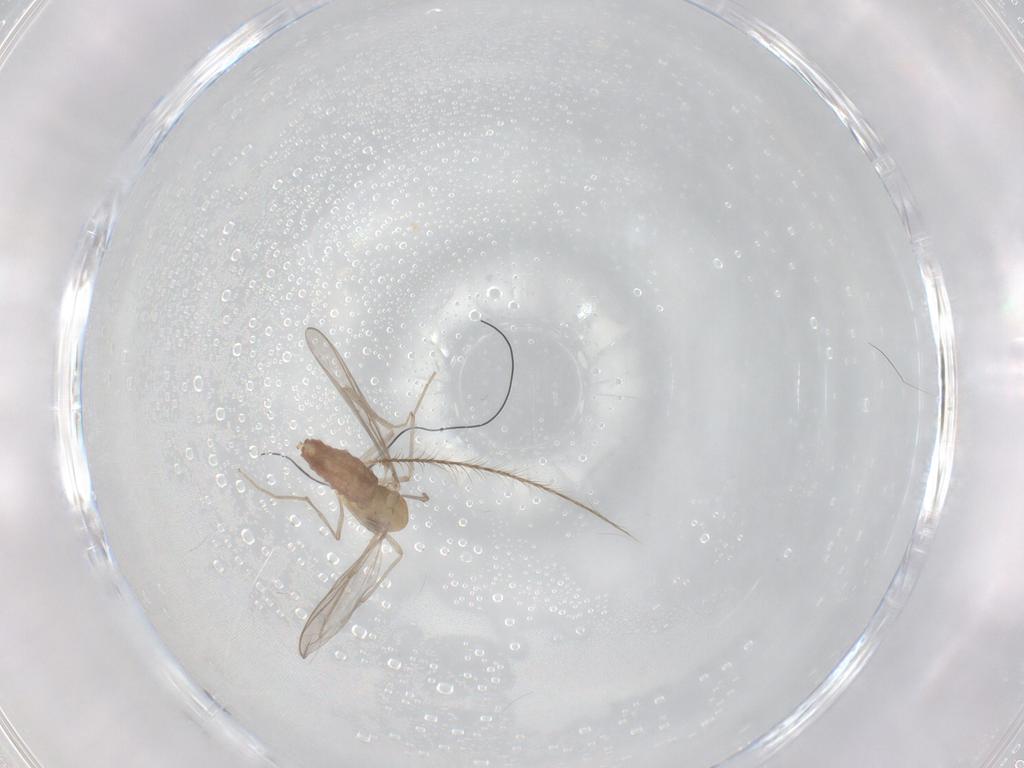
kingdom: Animalia
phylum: Arthropoda
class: Insecta
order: Diptera
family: Chironomidae
